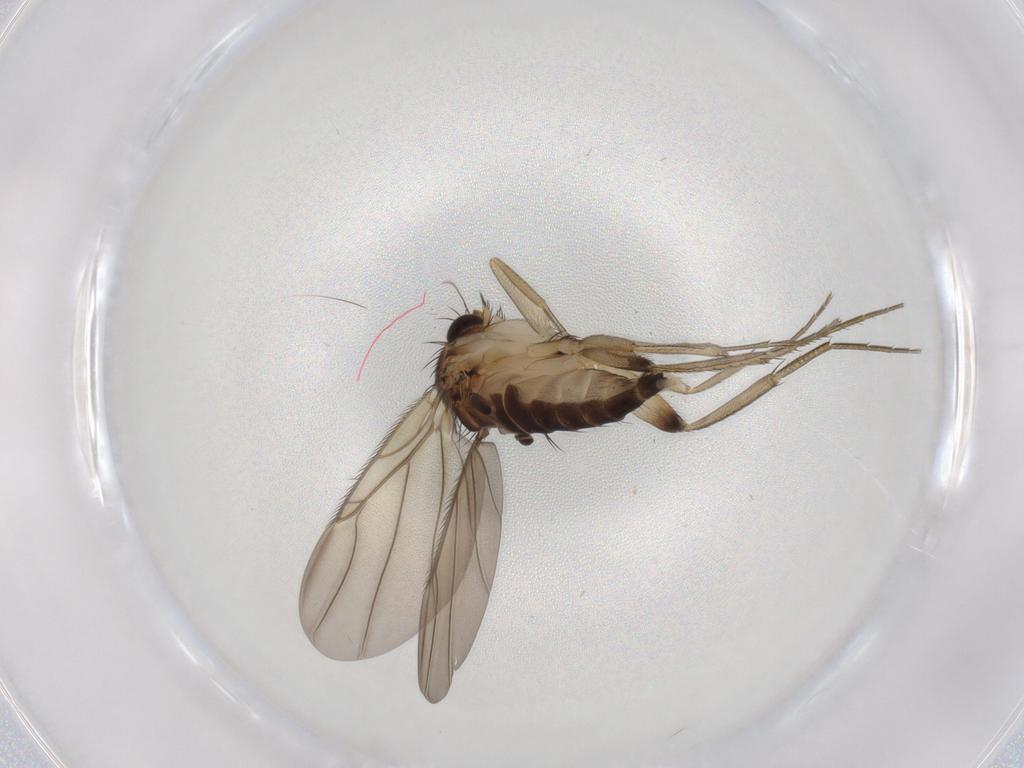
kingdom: Animalia
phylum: Arthropoda
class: Insecta
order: Diptera
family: Phoridae
